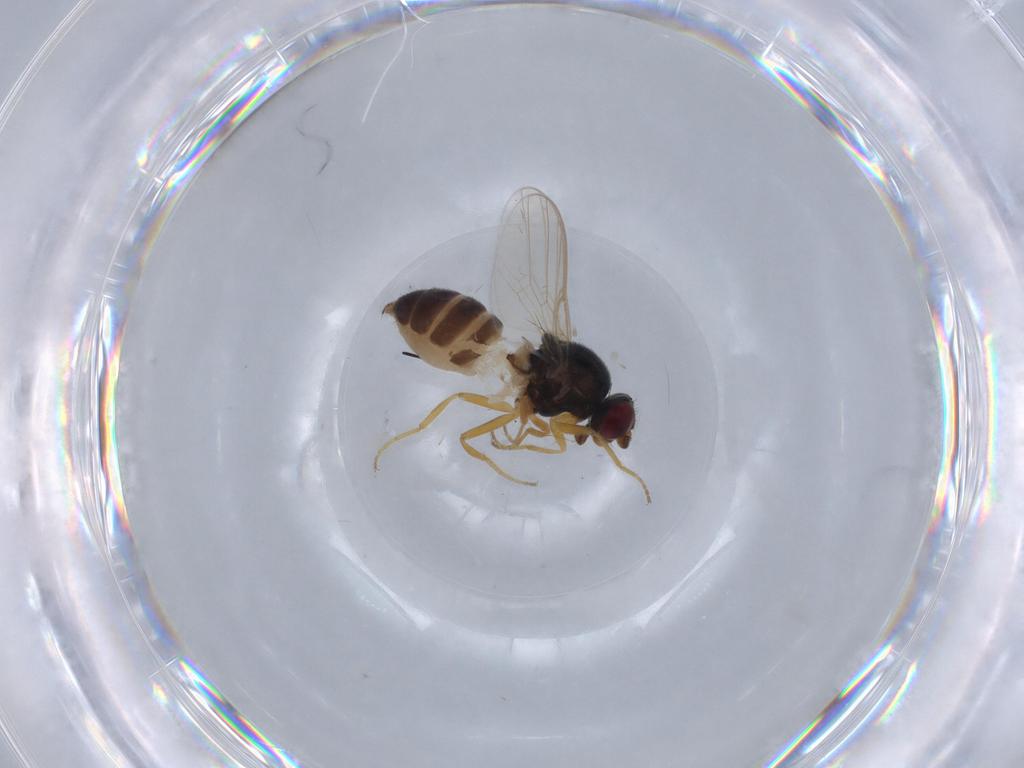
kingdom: Animalia
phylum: Arthropoda
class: Insecta
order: Diptera
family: Chloropidae
